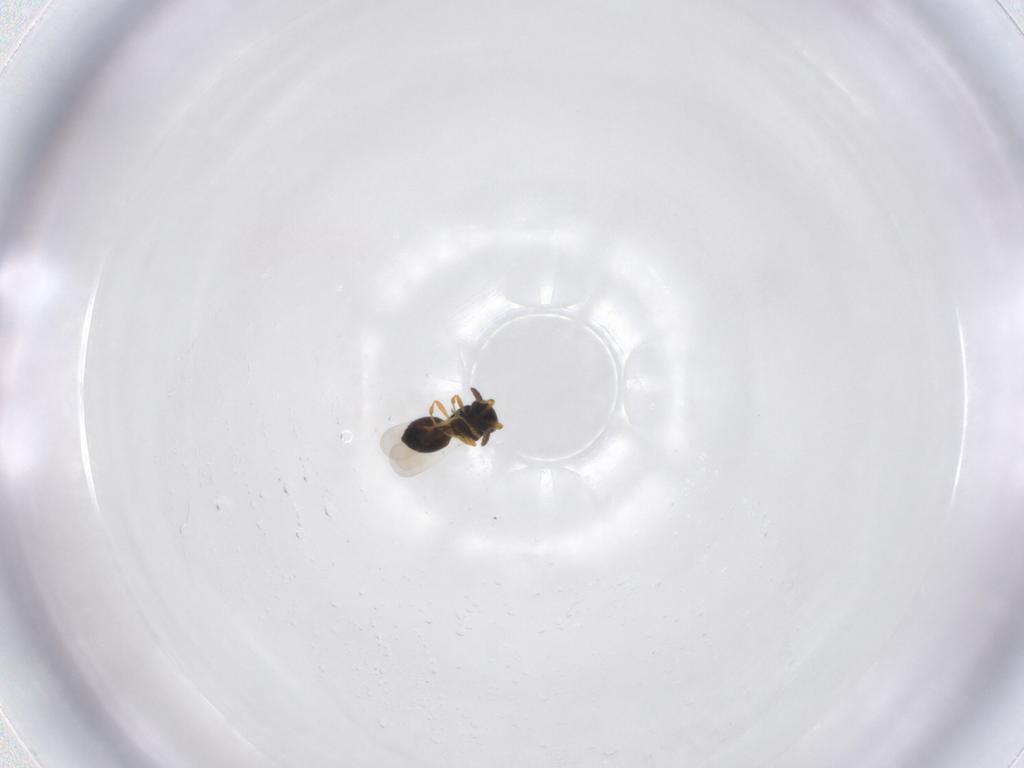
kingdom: Animalia
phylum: Arthropoda
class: Insecta
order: Hymenoptera
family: Platygastridae
